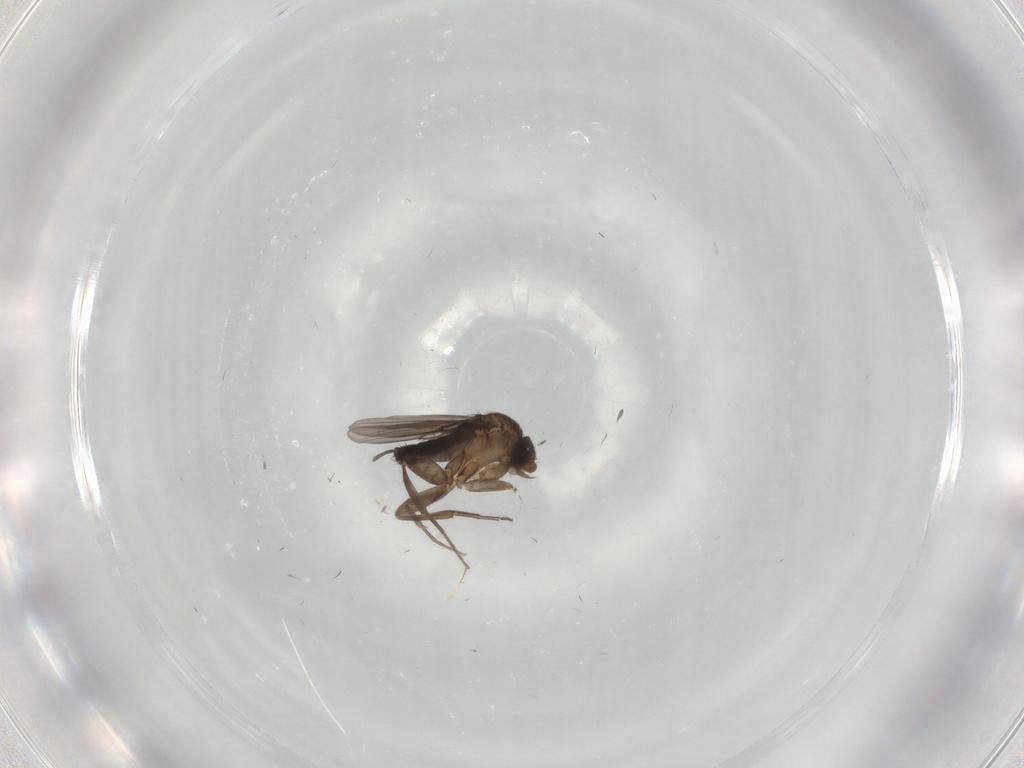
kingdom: Animalia
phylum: Arthropoda
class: Insecta
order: Diptera
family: Phoridae
